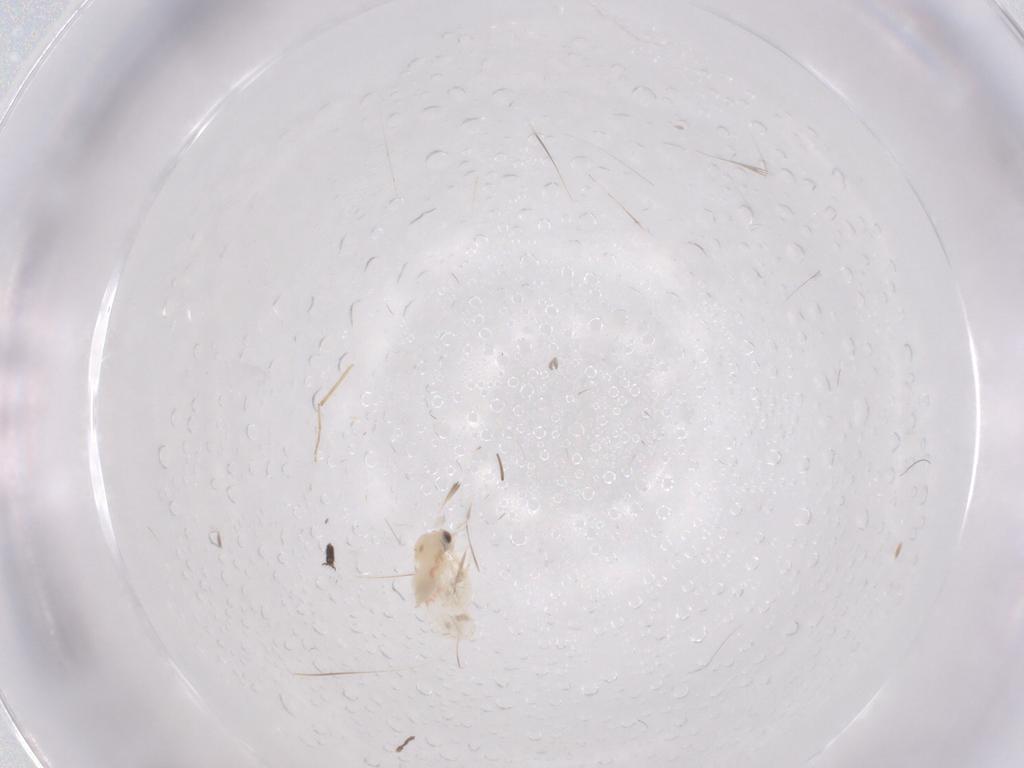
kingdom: Animalia
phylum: Arthropoda
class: Insecta
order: Hemiptera
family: Aleyrodidae
